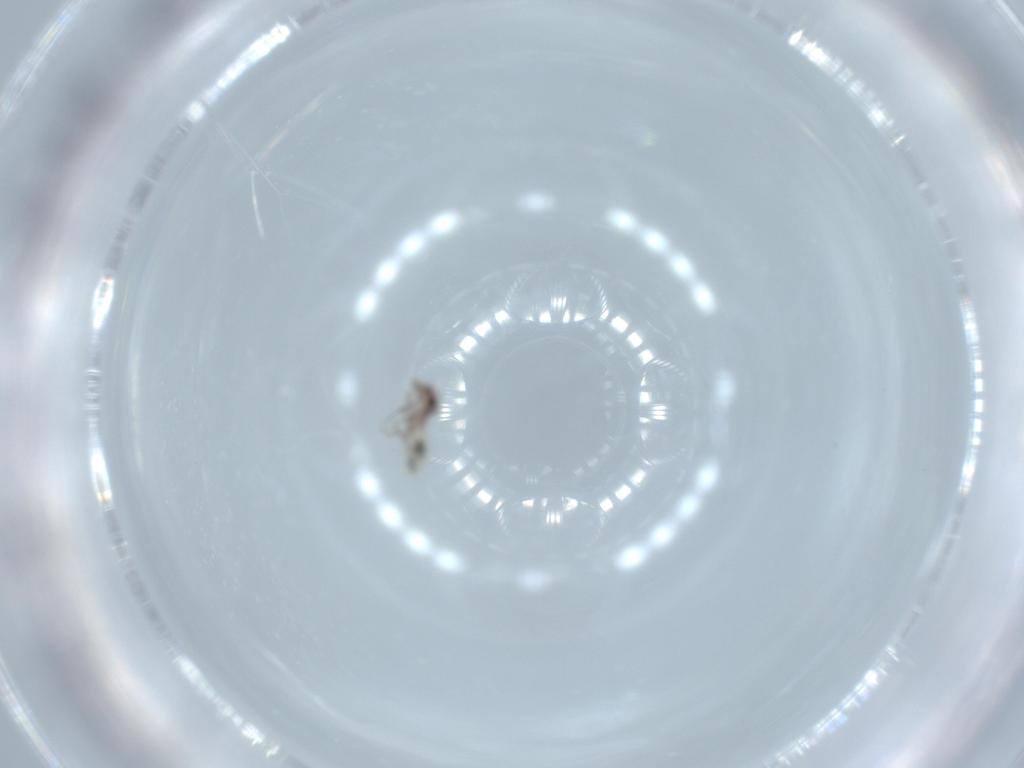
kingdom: Animalia
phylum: Arthropoda
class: Insecta
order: Psocodea
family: Lepidopsocidae
